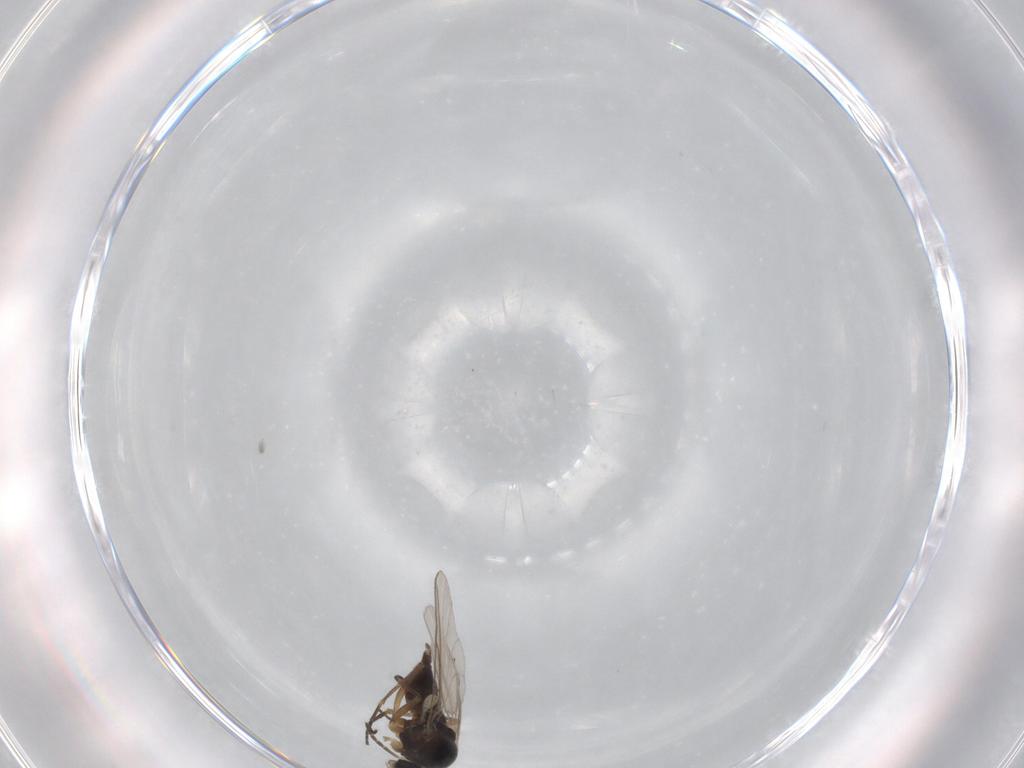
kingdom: Animalia
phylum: Arthropoda
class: Insecta
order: Diptera
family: Sciaridae
